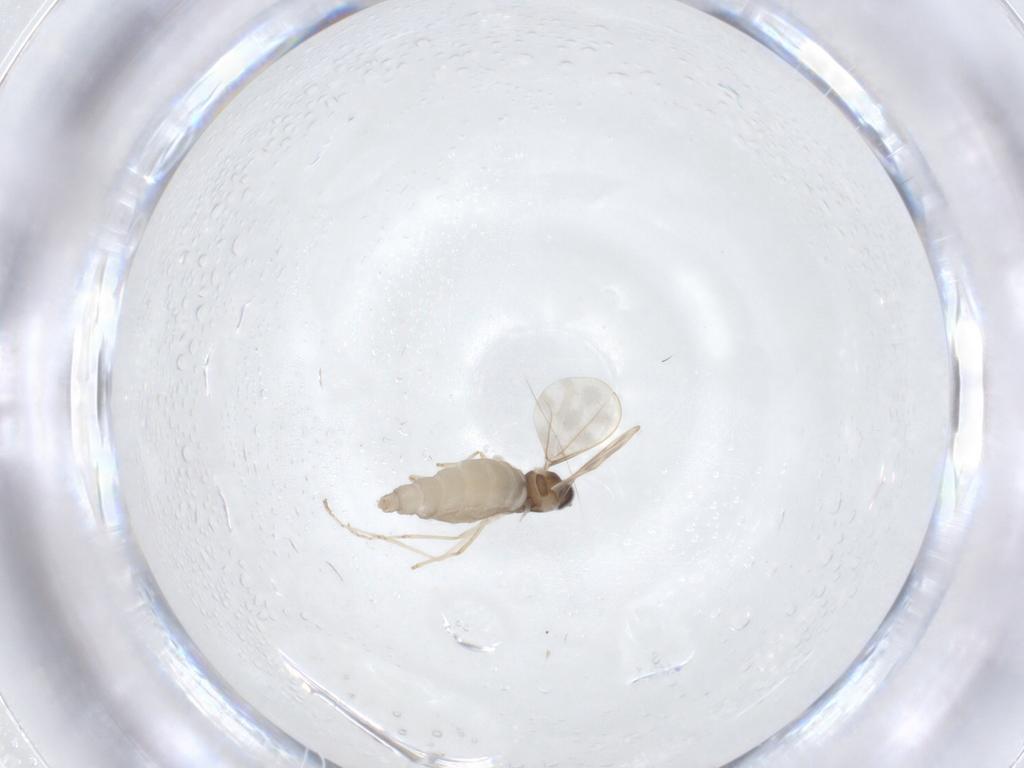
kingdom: Animalia
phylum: Arthropoda
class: Insecta
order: Diptera
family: Cecidomyiidae
